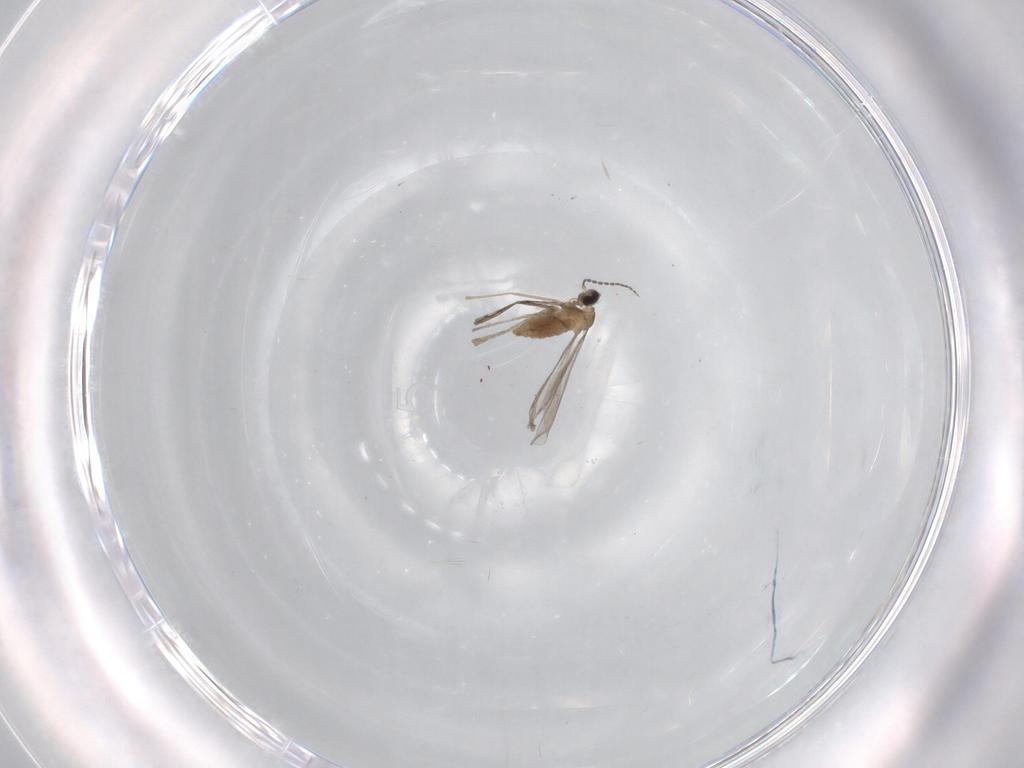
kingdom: Animalia
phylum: Arthropoda
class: Insecta
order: Diptera
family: Cecidomyiidae
